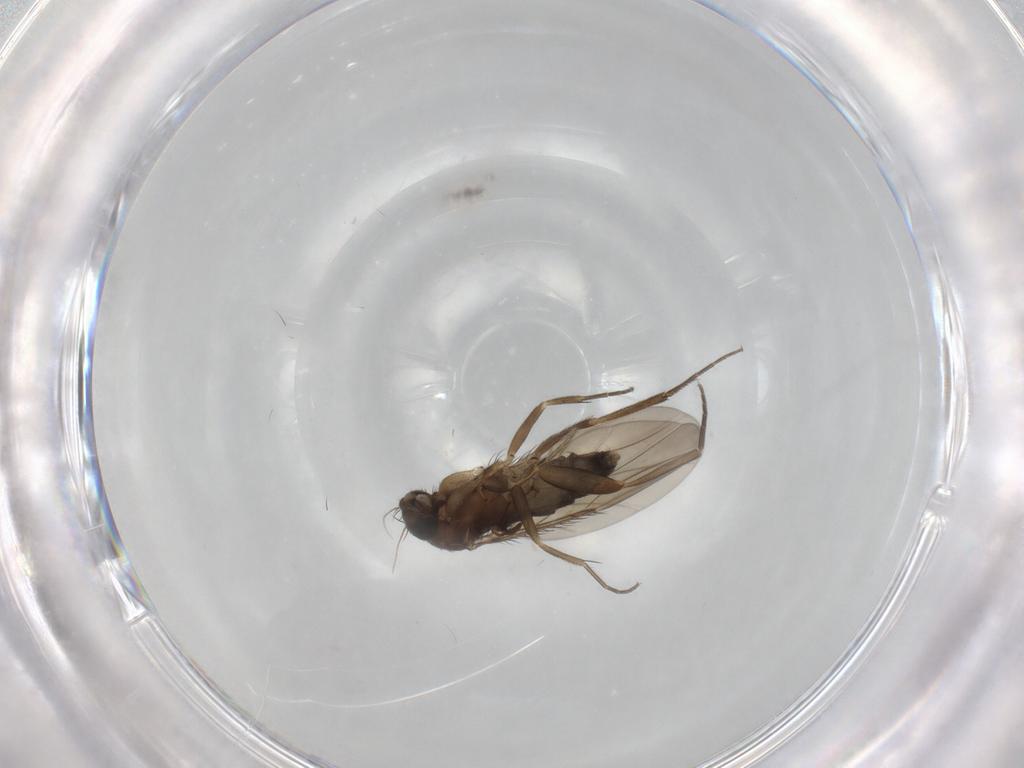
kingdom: Animalia
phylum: Arthropoda
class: Insecta
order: Diptera
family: Phoridae
